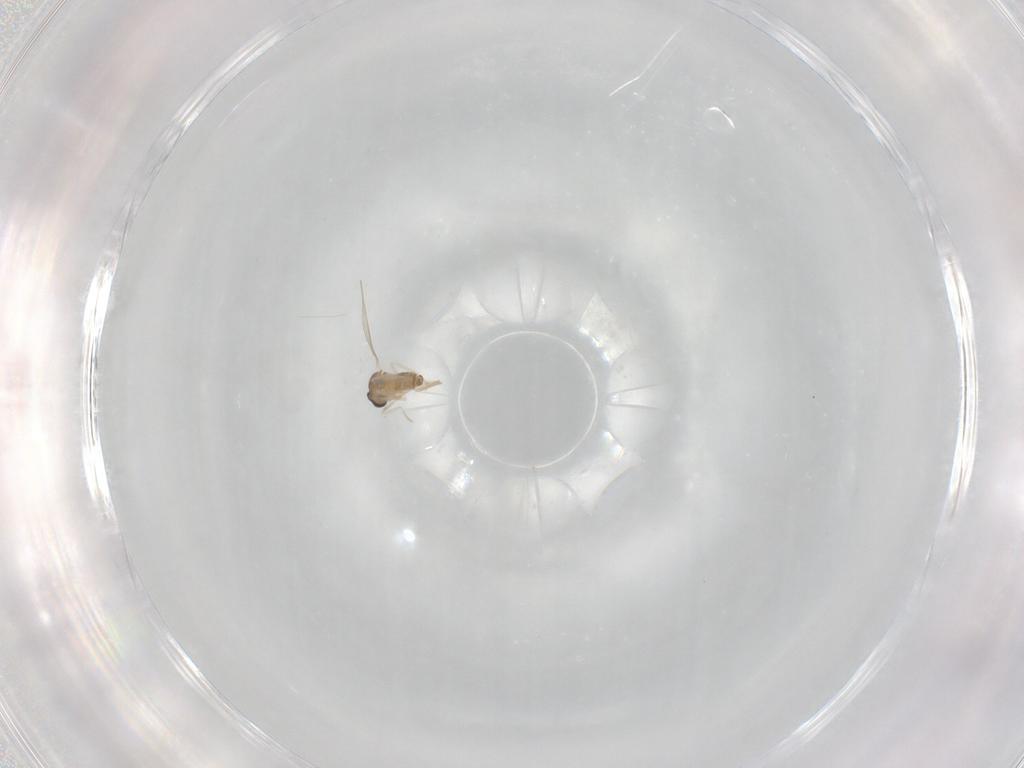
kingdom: Animalia
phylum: Arthropoda
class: Insecta
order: Diptera
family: Cecidomyiidae
